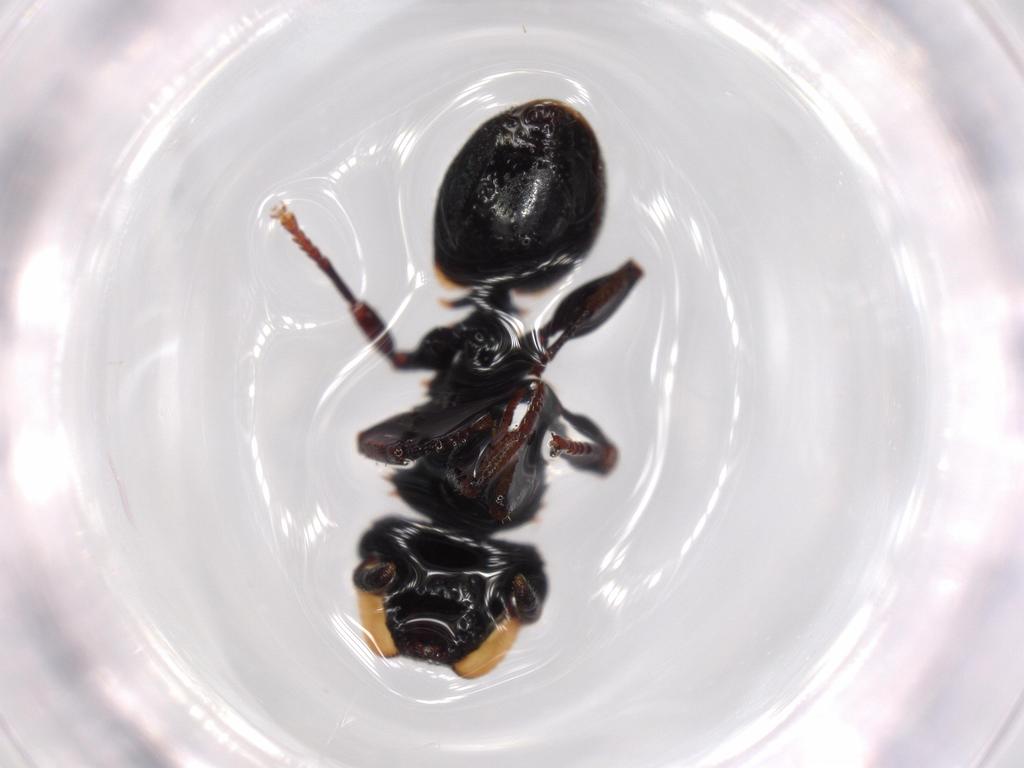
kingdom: Animalia
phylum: Arthropoda
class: Insecta
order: Hymenoptera
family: Formicidae
